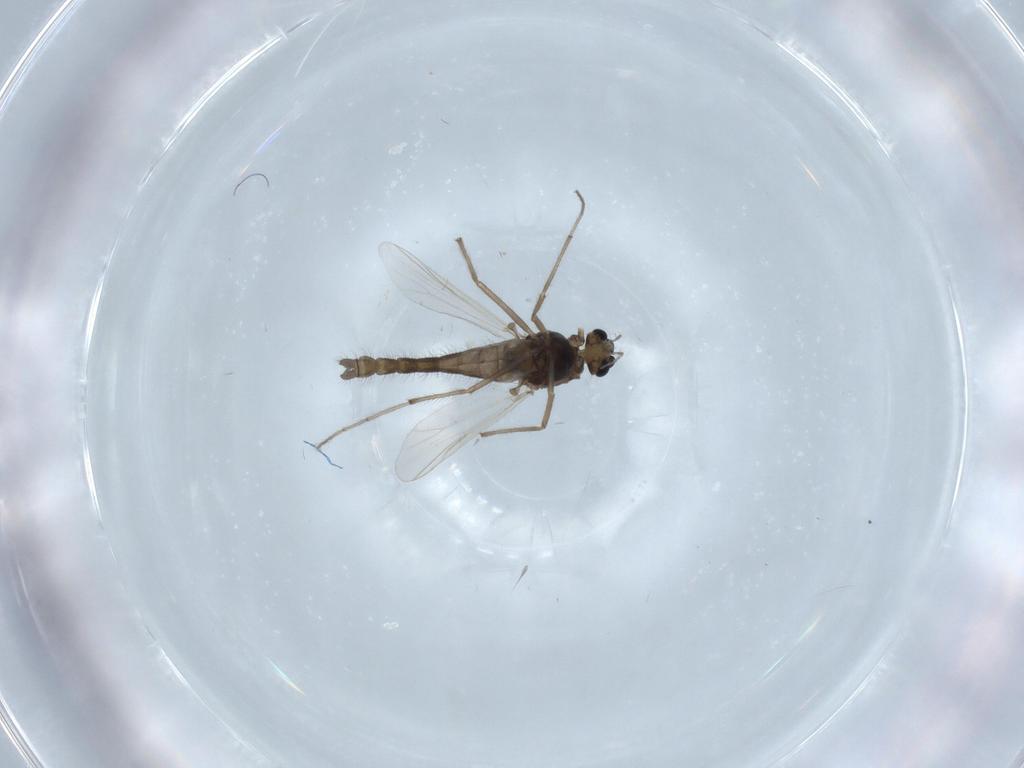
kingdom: Animalia
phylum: Arthropoda
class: Insecta
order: Diptera
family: Chironomidae
